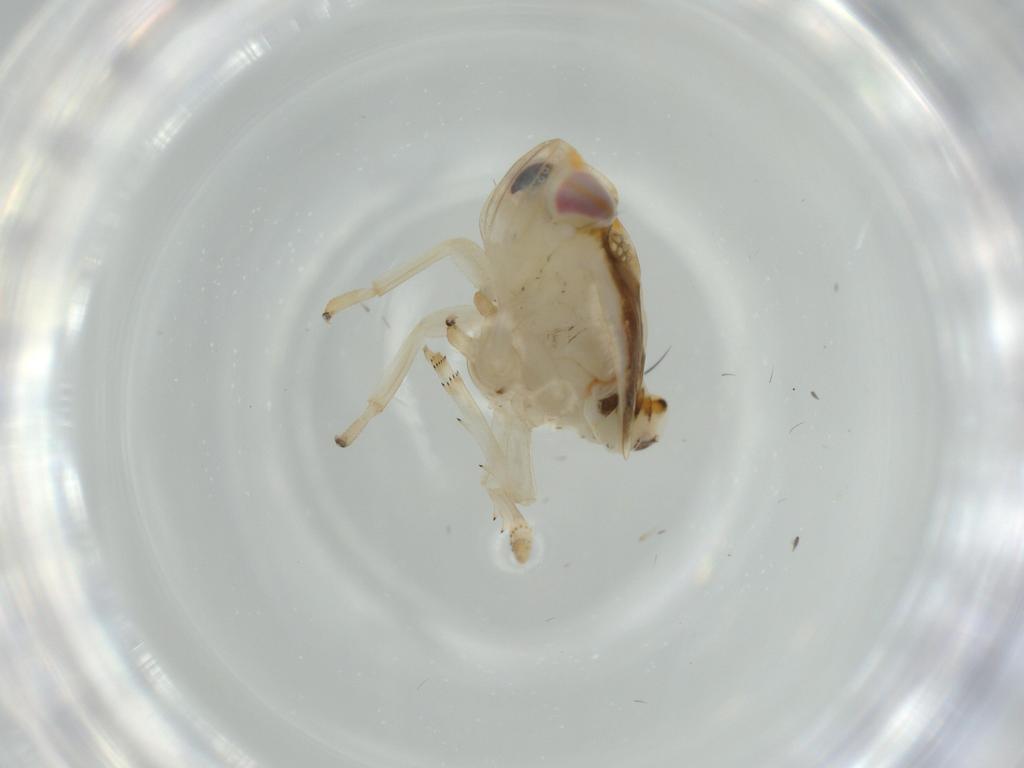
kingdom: Animalia
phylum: Arthropoda
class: Insecta
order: Hemiptera
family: Nogodinidae
